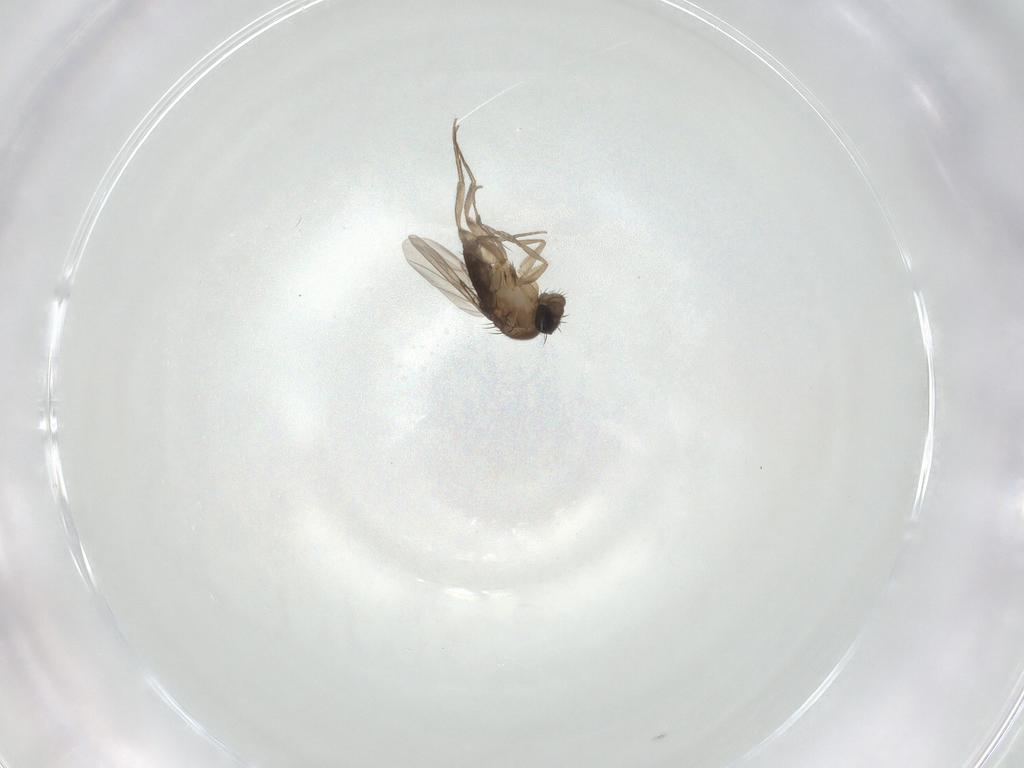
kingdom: Animalia
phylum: Arthropoda
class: Insecta
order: Diptera
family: Phoridae
